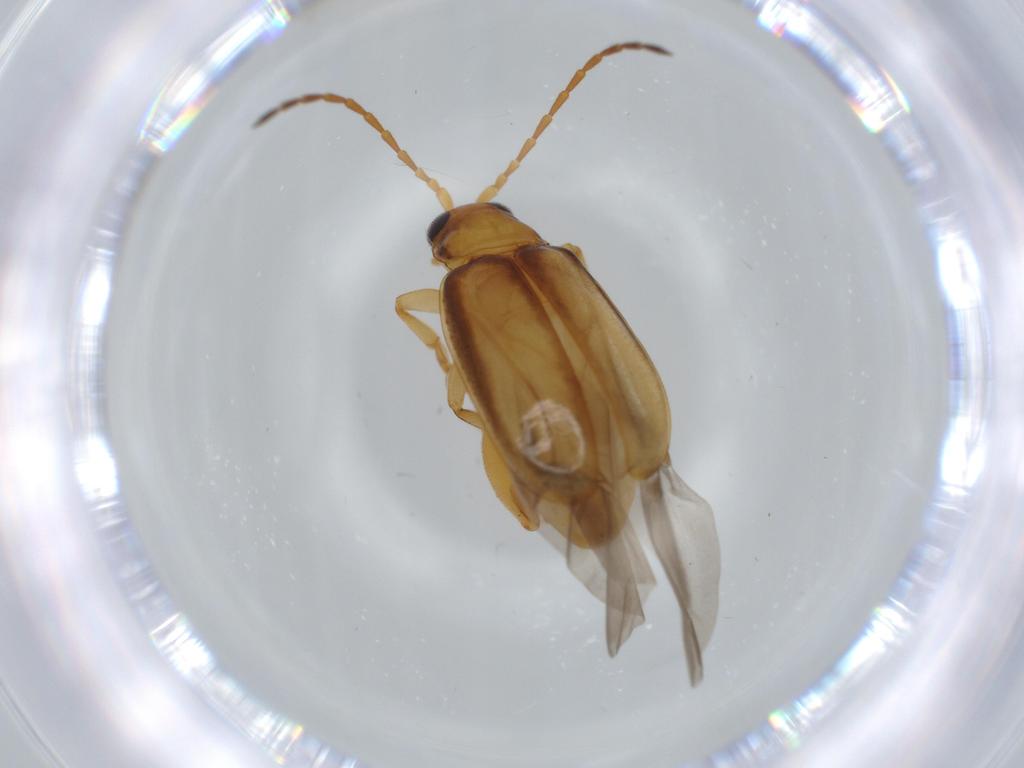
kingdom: Animalia
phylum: Arthropoda
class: Insecta
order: Coleoptera
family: Chrysomelidae
